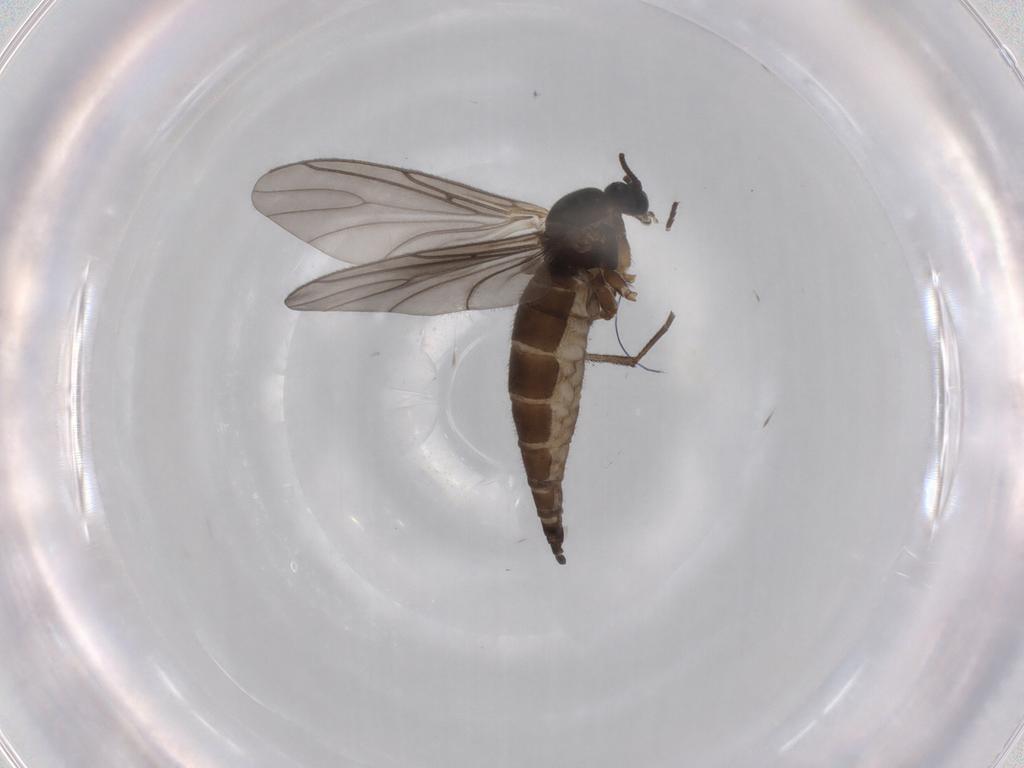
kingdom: Animalia
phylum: Arthropoda
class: Insecta
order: Diptera
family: Sciaridae
